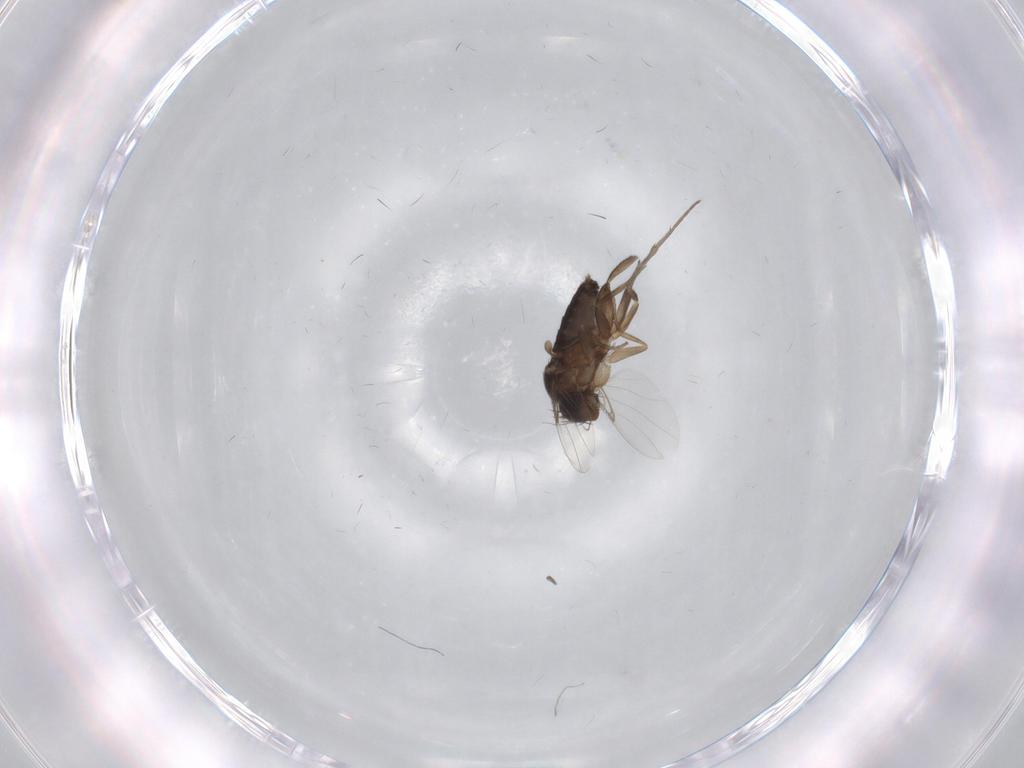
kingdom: Animalia
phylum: Arthropoda
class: Insecta
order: Diptera
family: Phoridae
